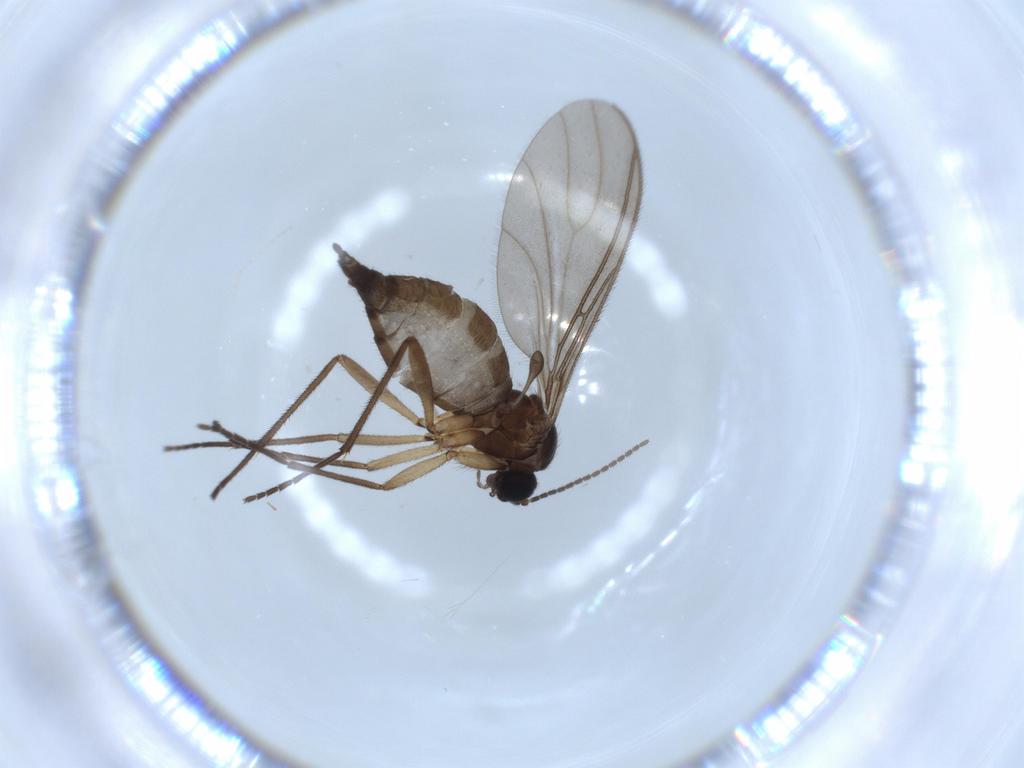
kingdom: Animalia
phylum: Arthropoda
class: Insecta
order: Diptera
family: Sciaridae
